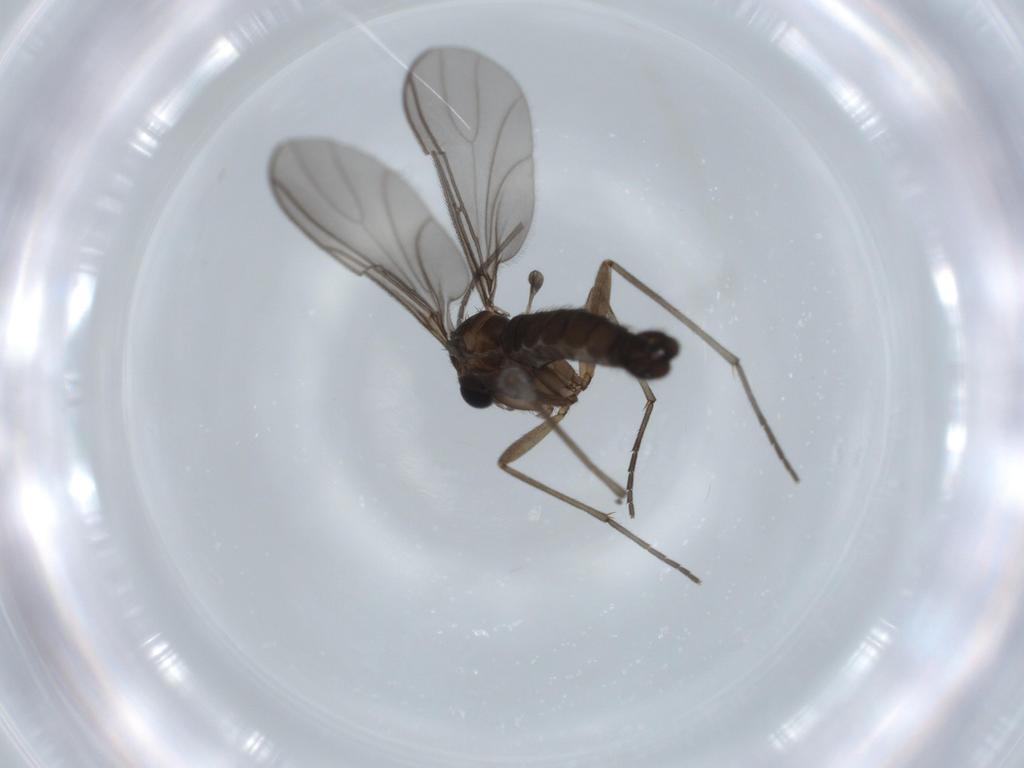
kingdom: Animalia
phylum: Arthropoda
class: Insecta
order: Diptera
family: Sciaridae
